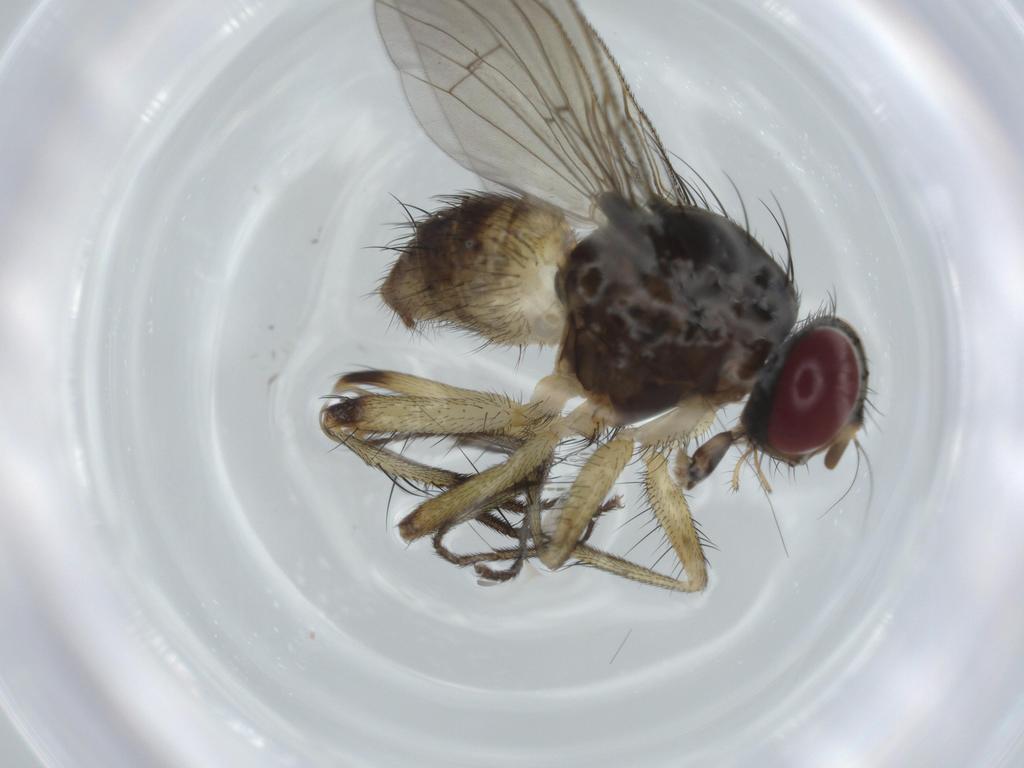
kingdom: Animalia
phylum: Arthropoda
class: Insecta
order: Diptera
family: Cecidomyiidae
